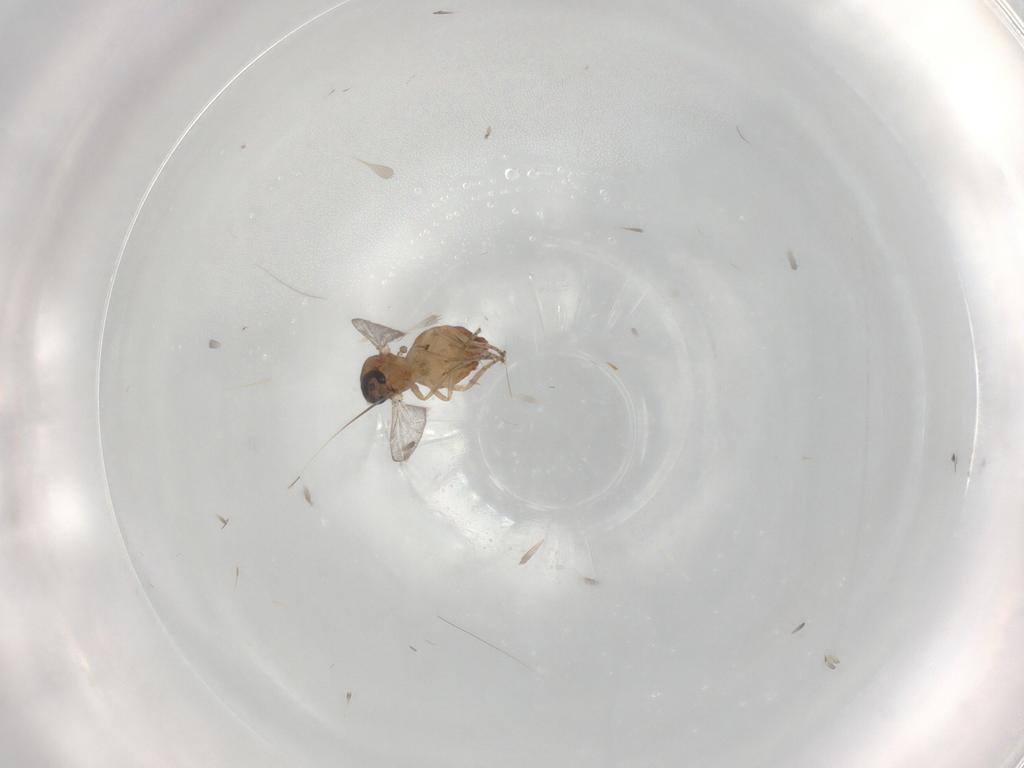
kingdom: Animalia
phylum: Arthropoda
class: Insecta
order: Diptera
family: Ceratopogonidae
